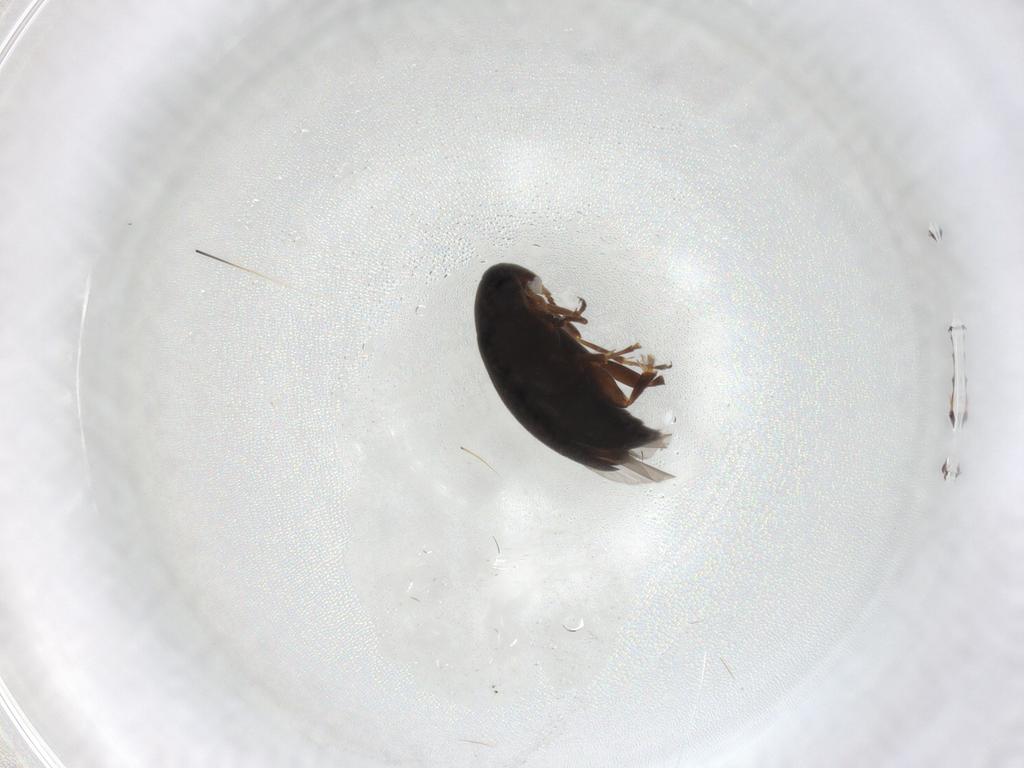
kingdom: Animalia
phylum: Arthropoda
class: Insecta
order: Coleoptera
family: Scraptiidae
